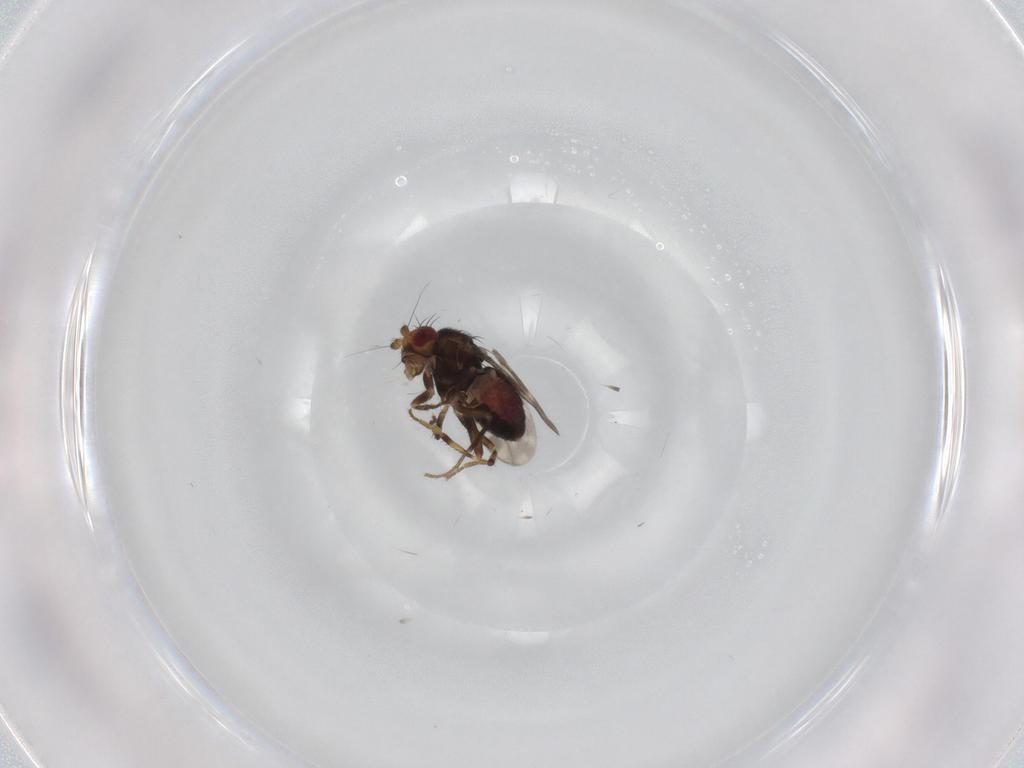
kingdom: Animalia
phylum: Arthropoda
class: Insecta
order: Diptera
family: Sphaeroceridae
